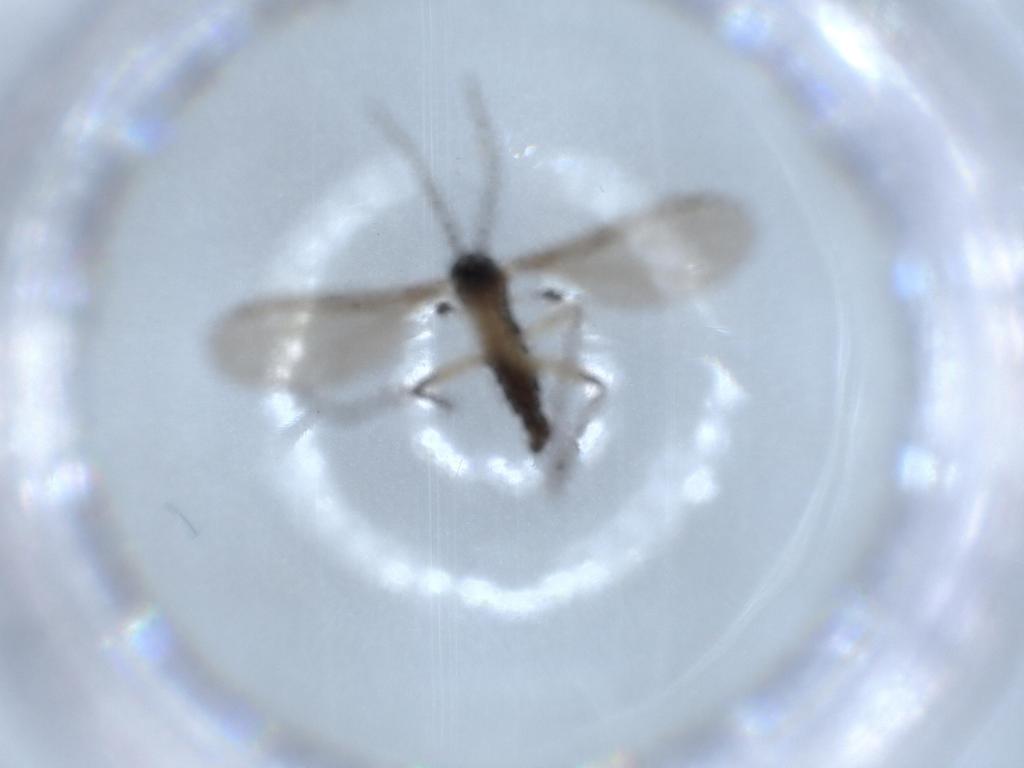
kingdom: Animalia
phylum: Arthropoda
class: Insecta
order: Diptera
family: Sciaridae
